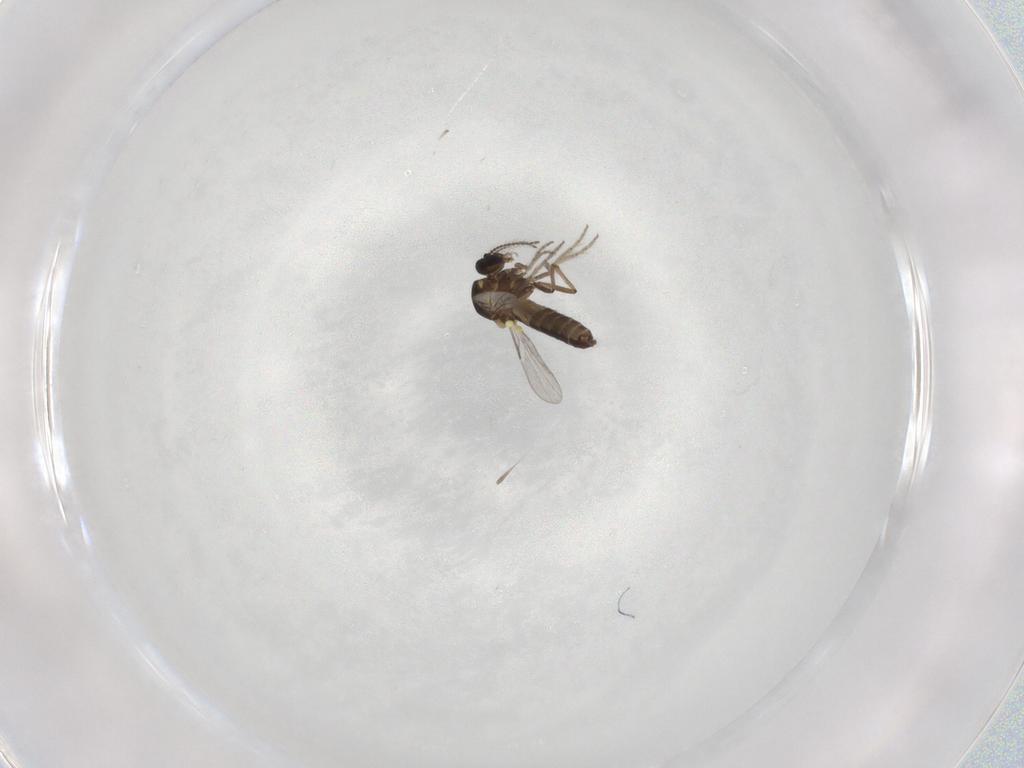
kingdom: Animalia
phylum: Arthropoda
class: Insecta
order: Diptera
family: Ceratopogonidae
